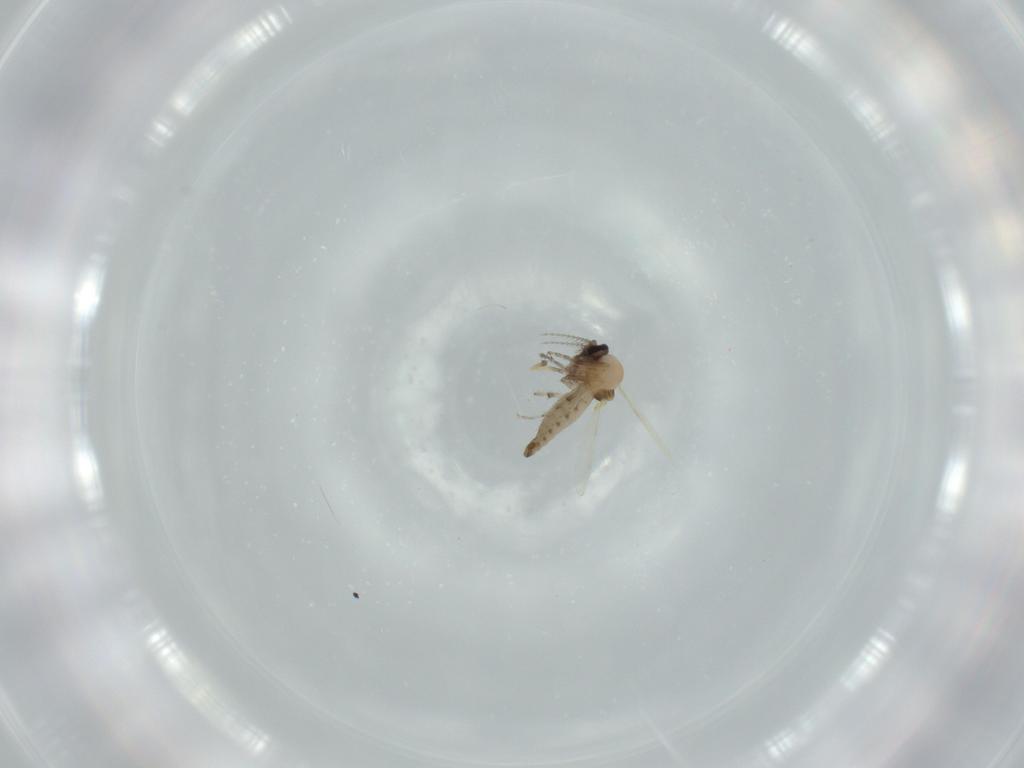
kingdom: Animalia
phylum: Arthropoda
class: Insecta
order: Diptera
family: Ceratopogonidae
